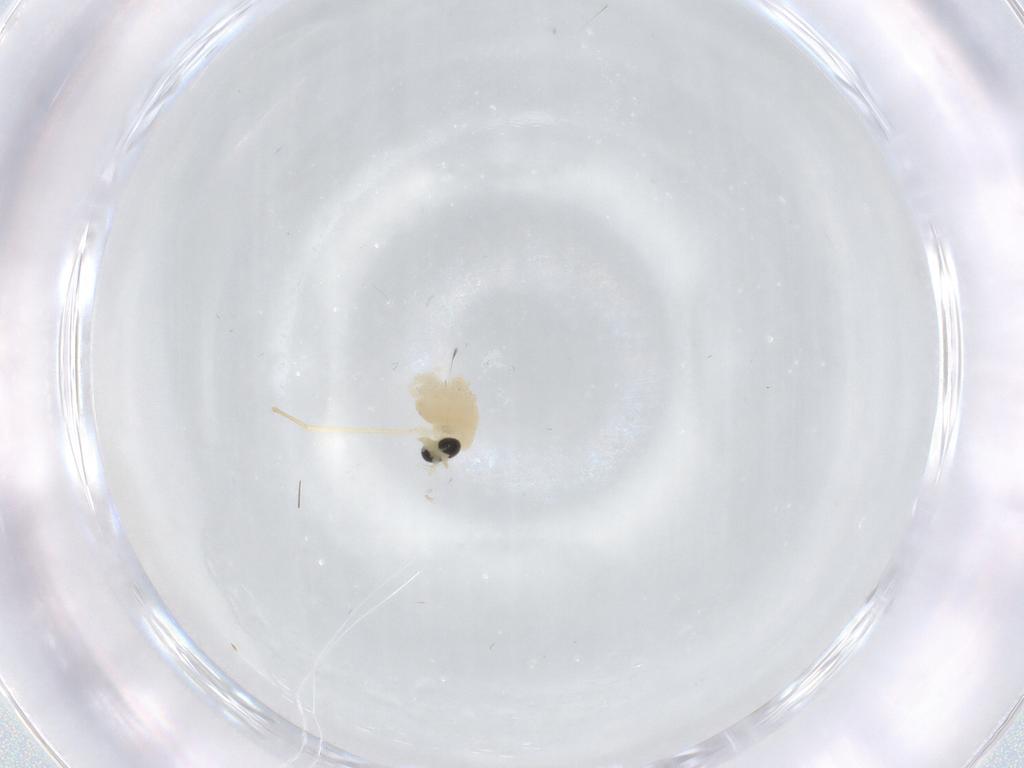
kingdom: Animalia
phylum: Arthropoda
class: Insecta
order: Diptera
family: Chironomidae
